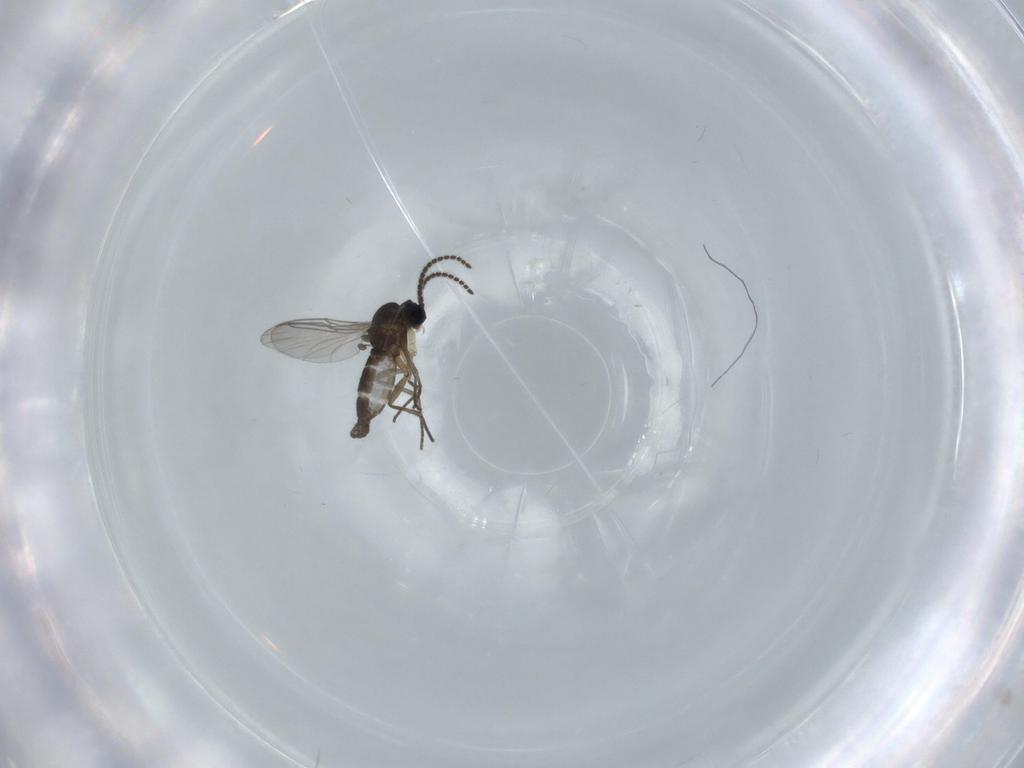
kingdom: Animalia
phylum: Arthropoda
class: Insecta
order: Diptera
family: Sciaridae
